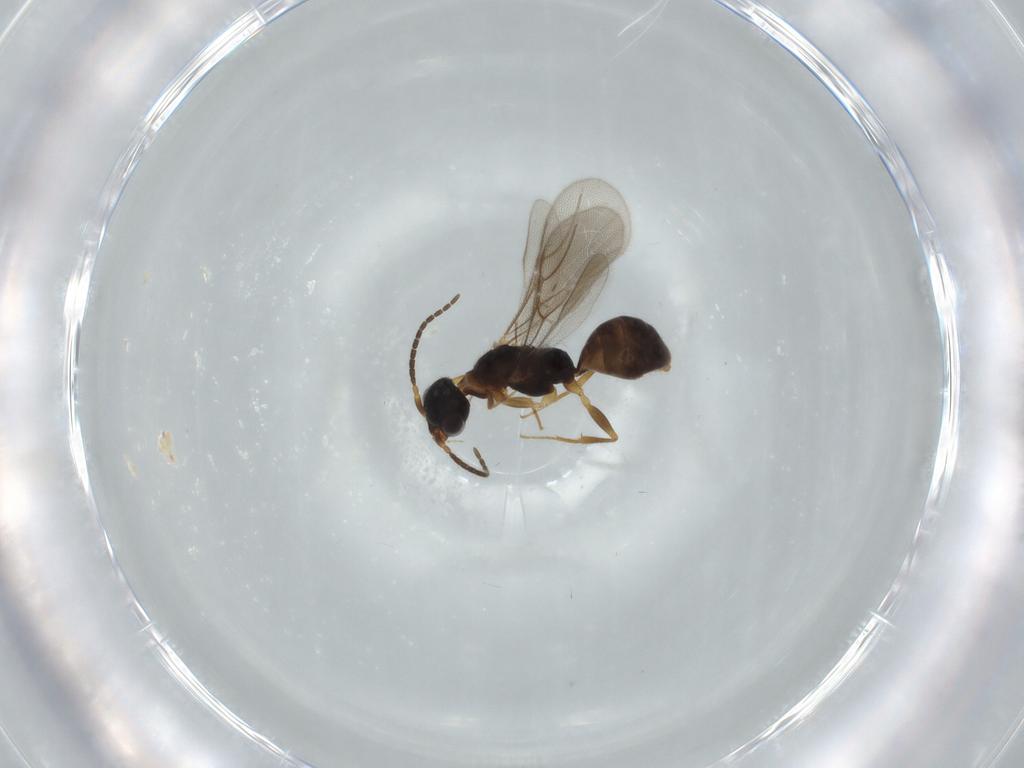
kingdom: Animalia
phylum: Arthropoda
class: Insecta
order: Hymenoptera
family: Bethylidae
